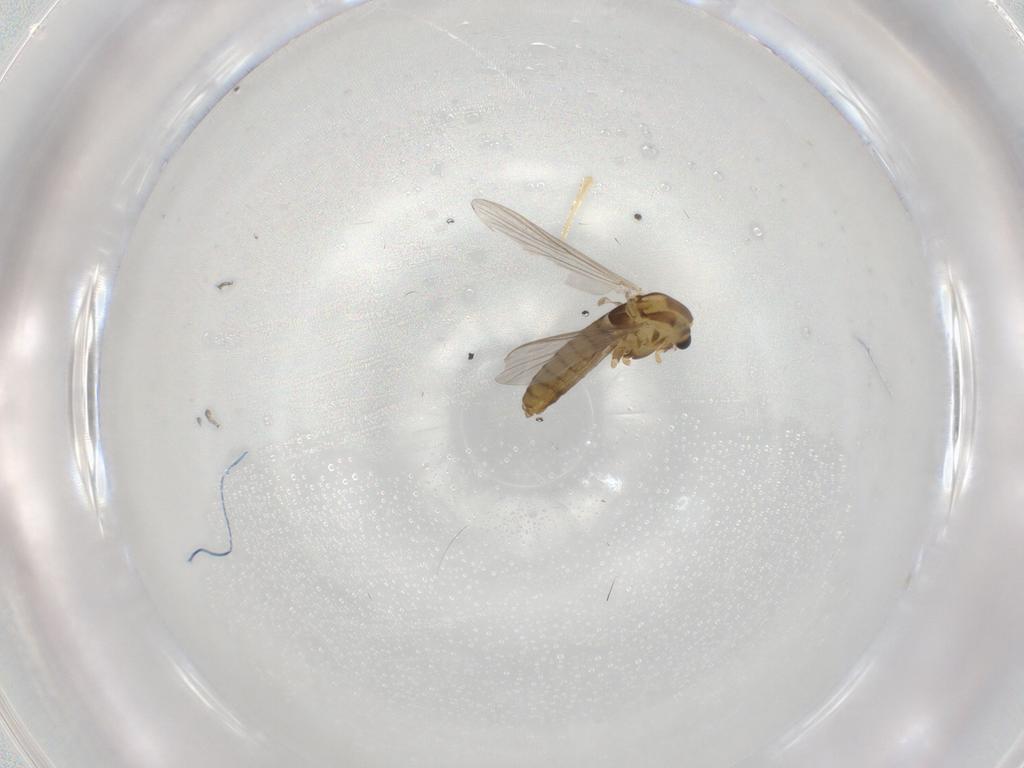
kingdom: Animalia
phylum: Arthropoda
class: Insecta
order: Diptera
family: Chironomidae
